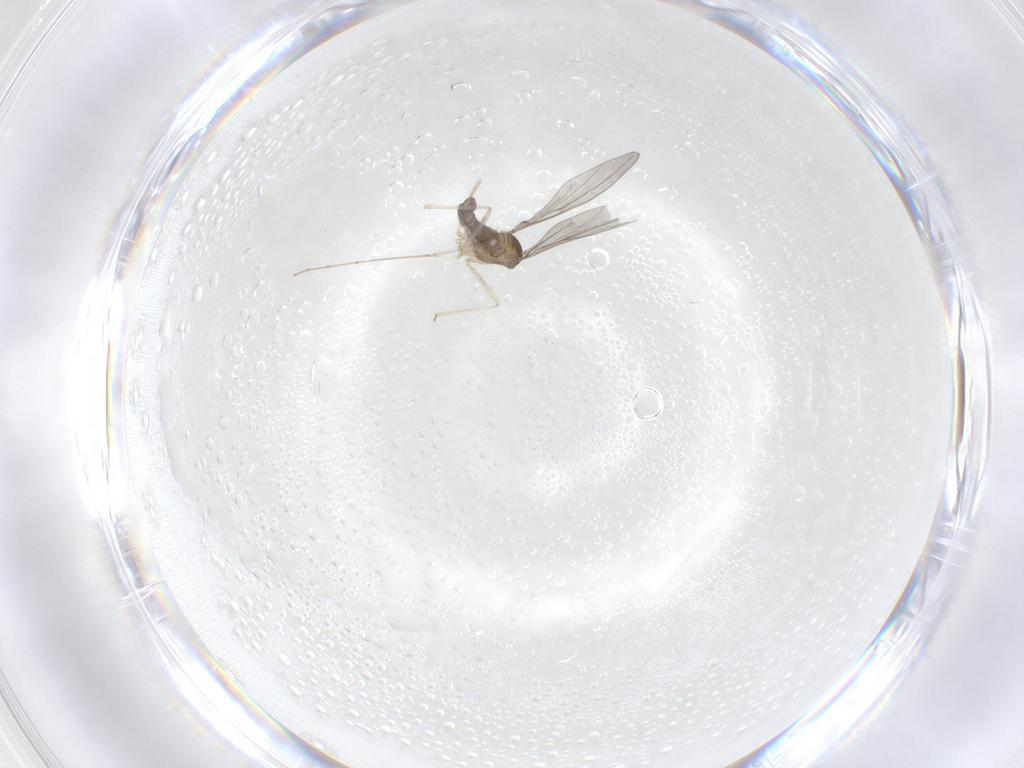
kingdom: Animalia
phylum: Arthropoda
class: Insecta
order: Diptera
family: Cecidomyiidae
